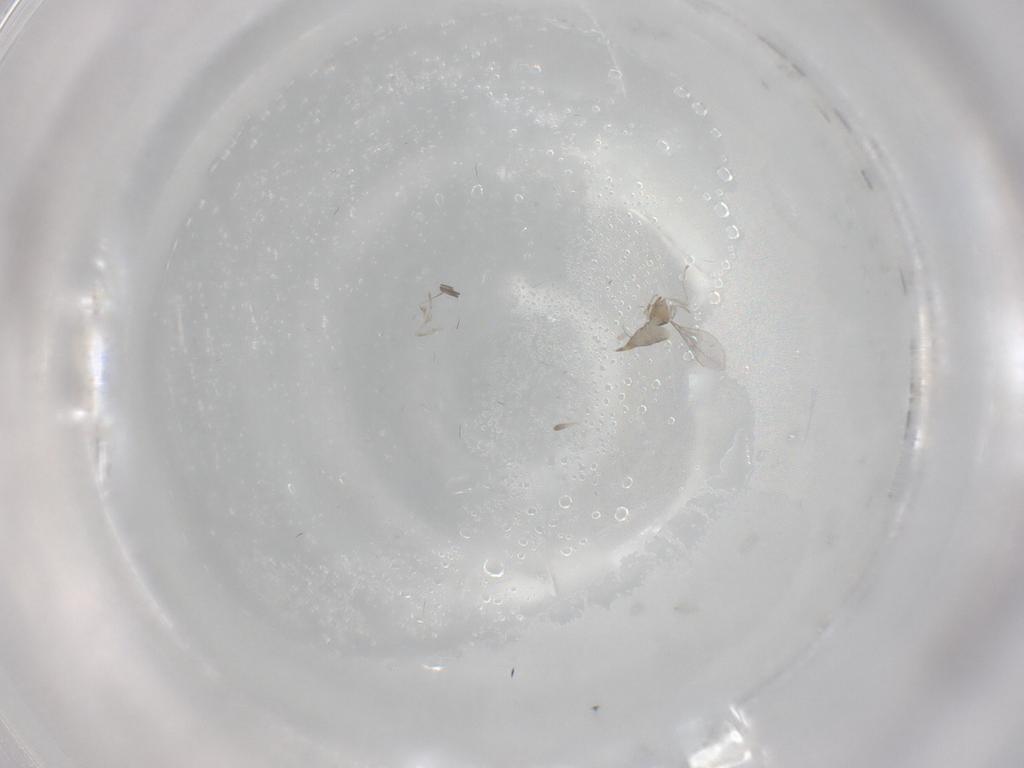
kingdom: Animalia
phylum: Arthropoda
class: Insecta
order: Diptera
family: Cecidomyiidae
